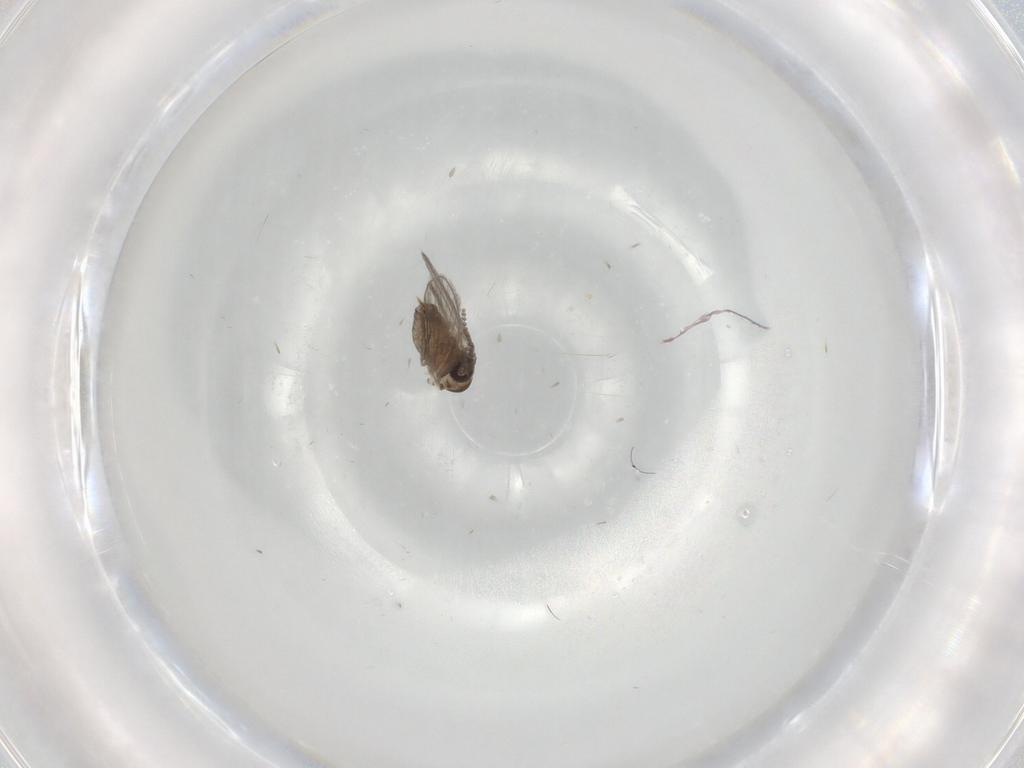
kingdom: Animalia
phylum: Arthropoda
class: Insecta
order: Diptera
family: Psychodidae
